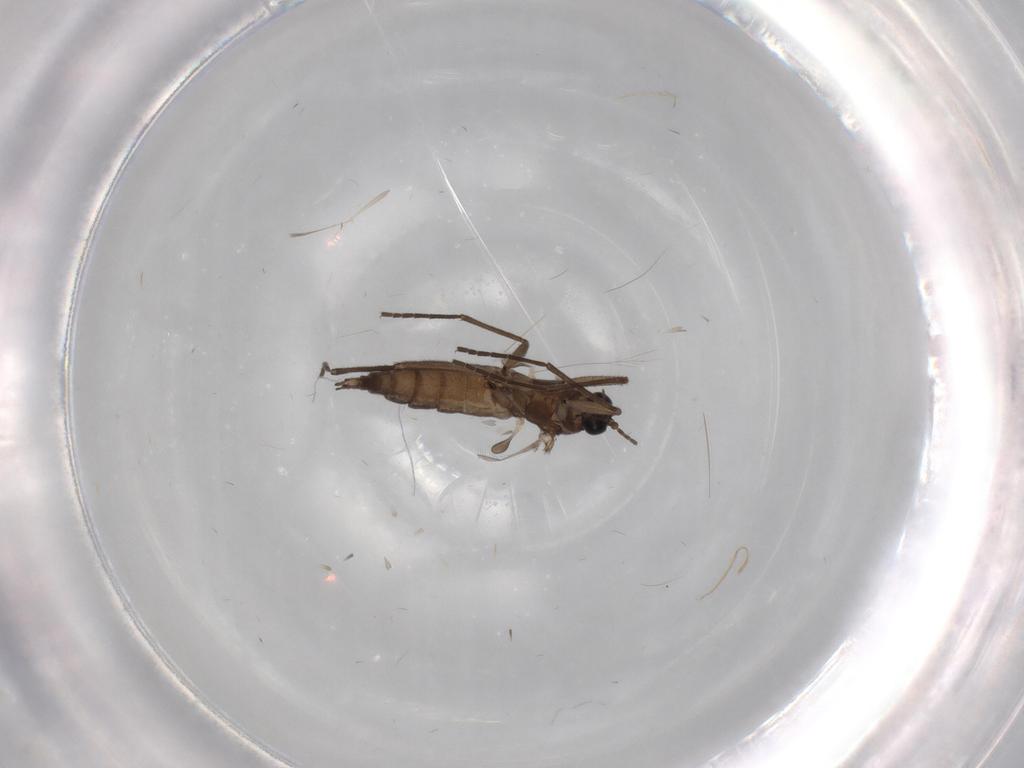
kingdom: Animalia
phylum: Arthropoda
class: Insecta
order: Diptera
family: Sciaridae
